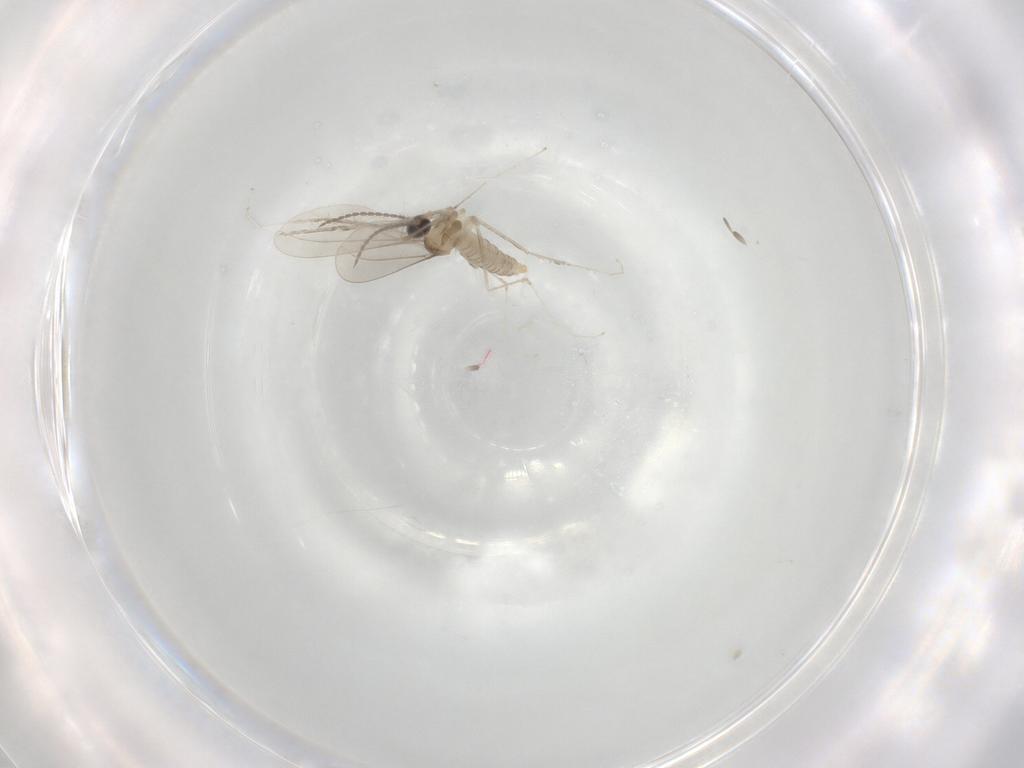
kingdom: Animalia
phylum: Arthropoda
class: Insecta
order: Diptera
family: Cecidomyiidae
